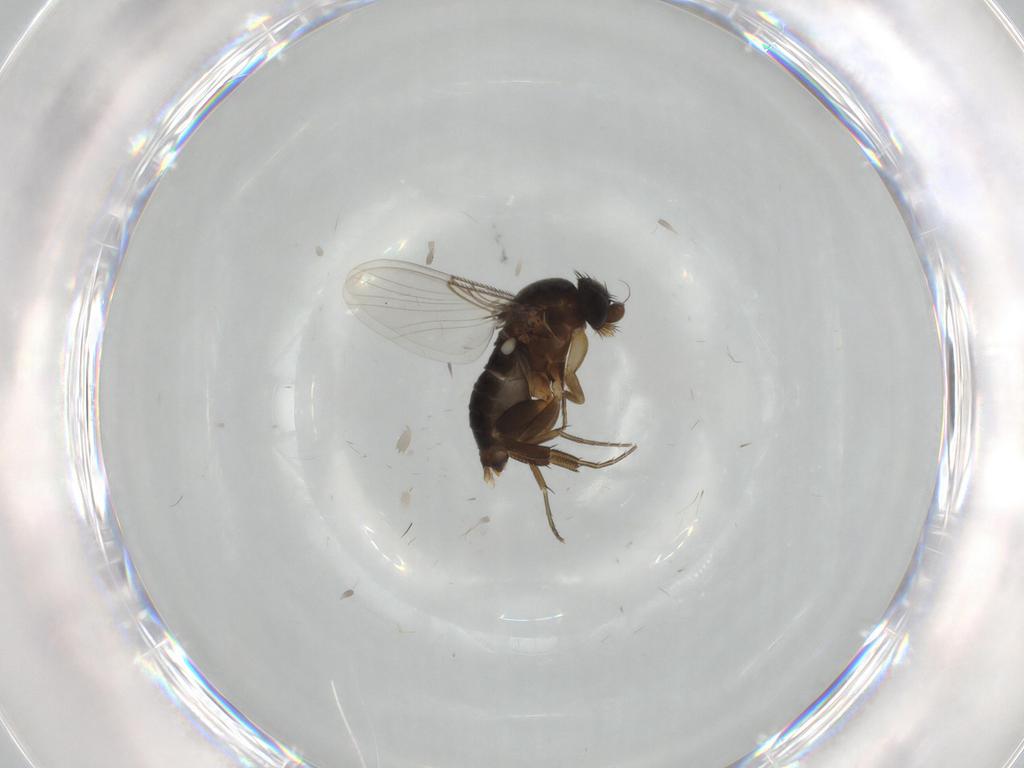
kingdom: Animalia
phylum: Arthropoda
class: Insecta
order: Diptera
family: Phoridae
